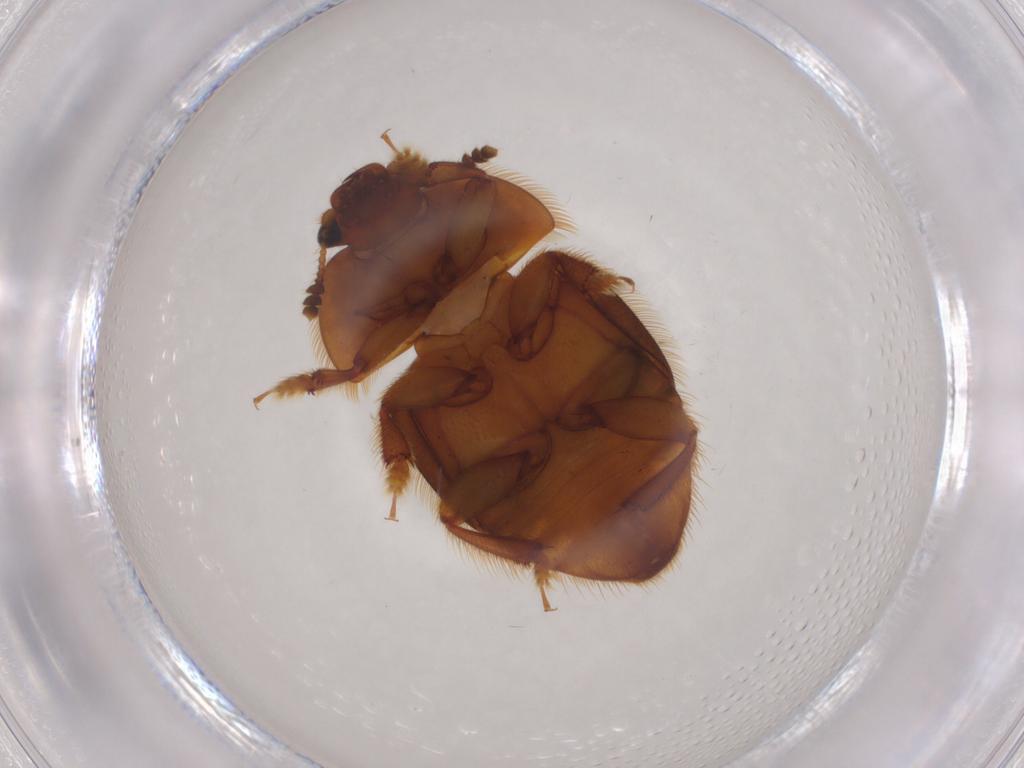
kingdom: Animalia
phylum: Arthropoda
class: Insecta
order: Coleoptera
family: Nitidulidae
